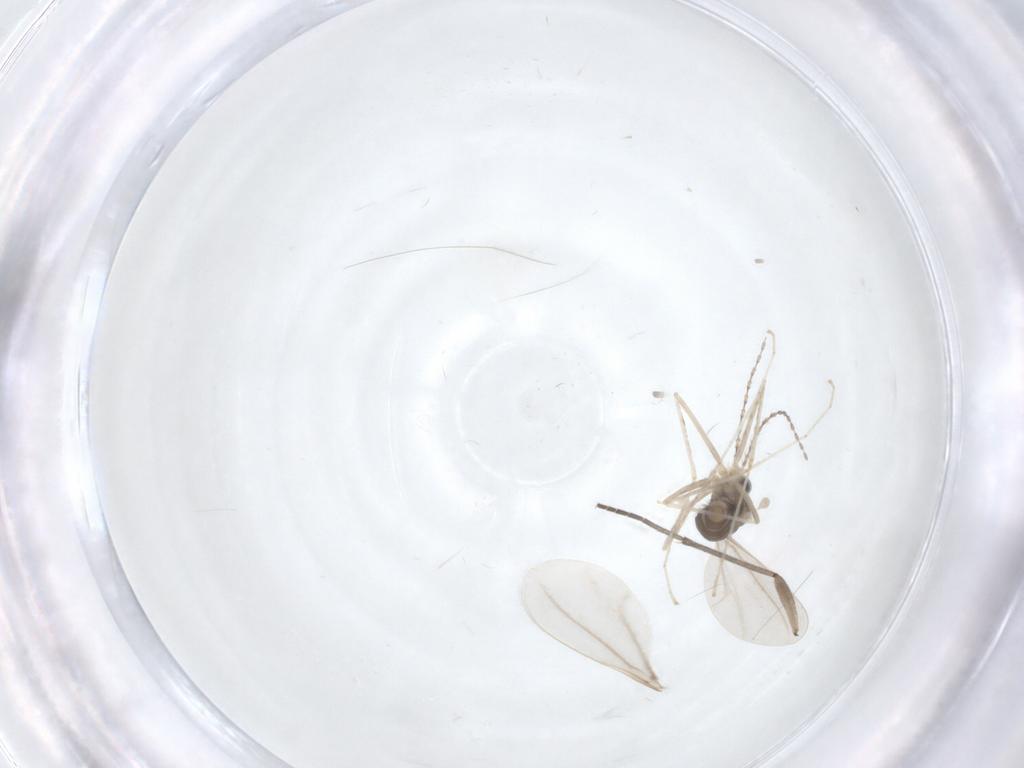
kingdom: Animalia
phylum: Arthropoda
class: Insecta
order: Diptera
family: Cecidomyiidae
